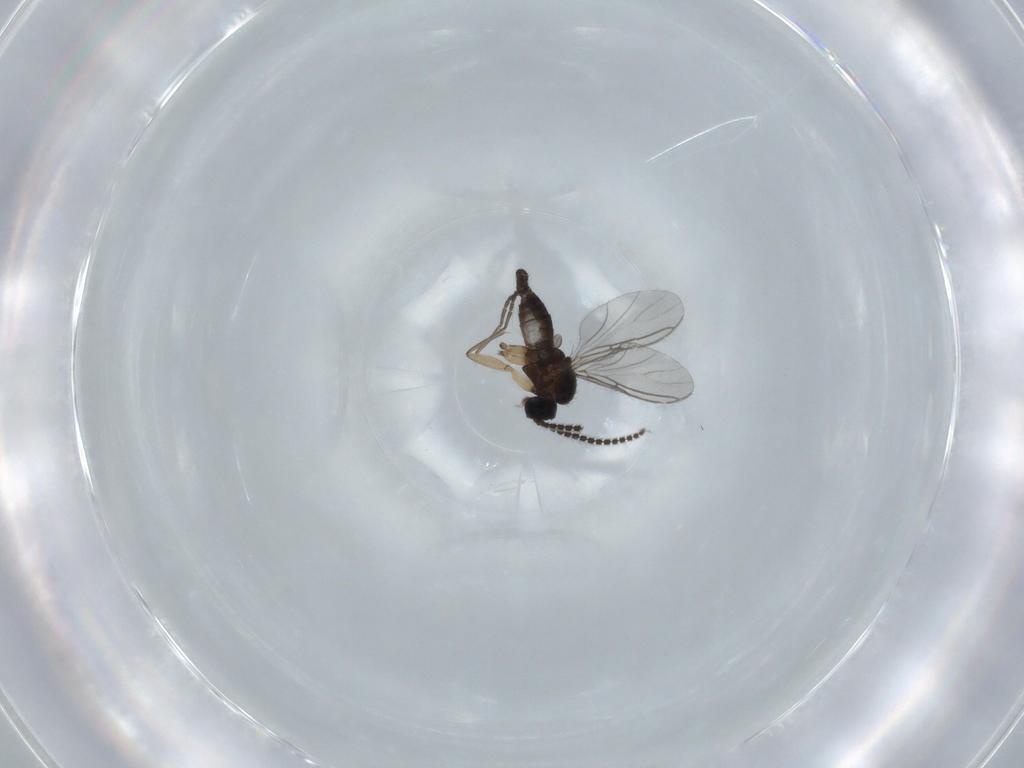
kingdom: Animalia
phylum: Arthropoda
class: Insecta
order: Diptera
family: Sciaridae
